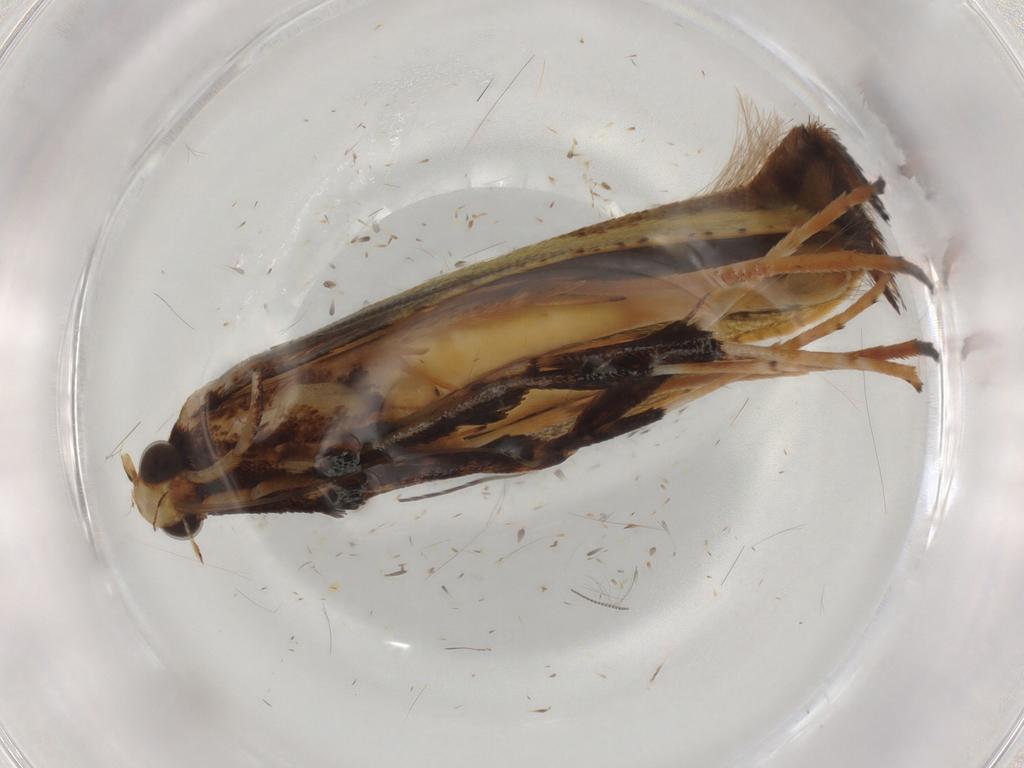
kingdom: Animalia
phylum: Arthropoda
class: Insecta
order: Lepidoptera
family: Gracillariidae
